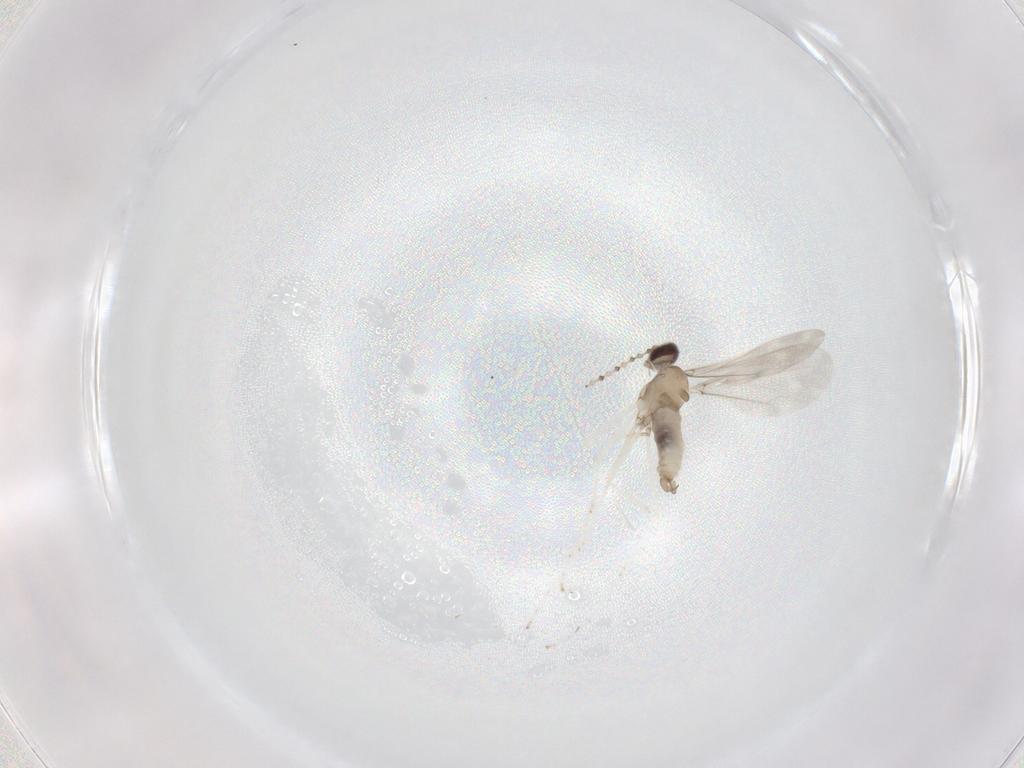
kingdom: Animalia
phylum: Arthropoda
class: Insecta
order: Diptera
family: Cecidomyiidae
